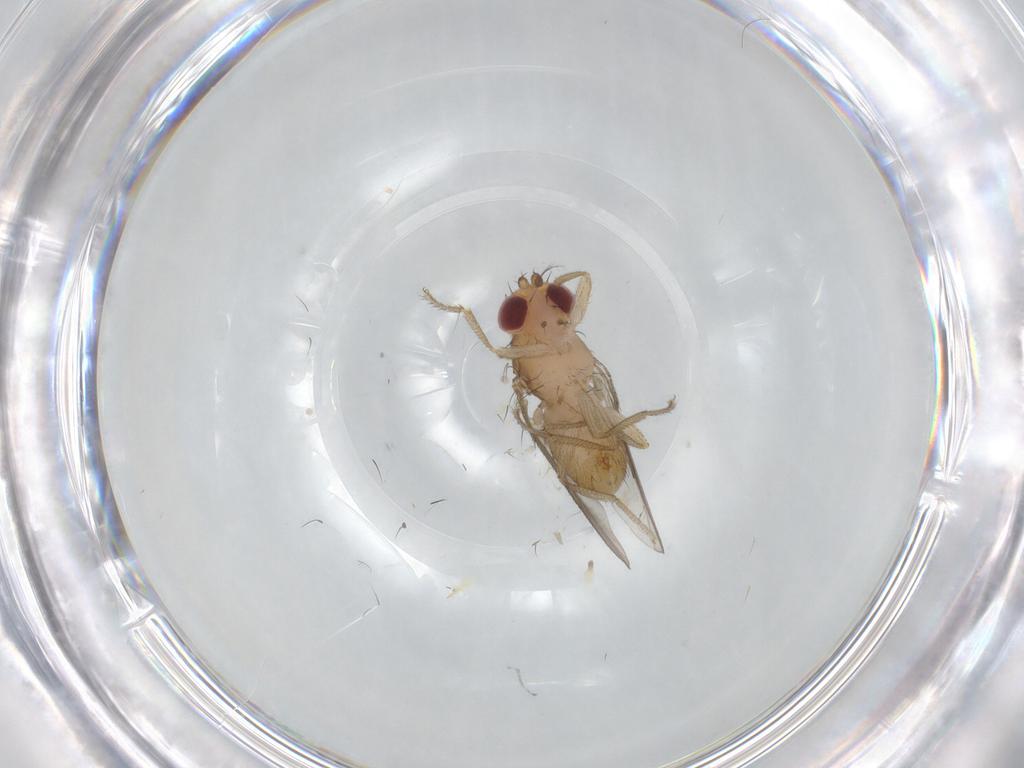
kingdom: Animalia
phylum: Arthropoda
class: Insecta
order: Diptera
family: Drosophilidae
